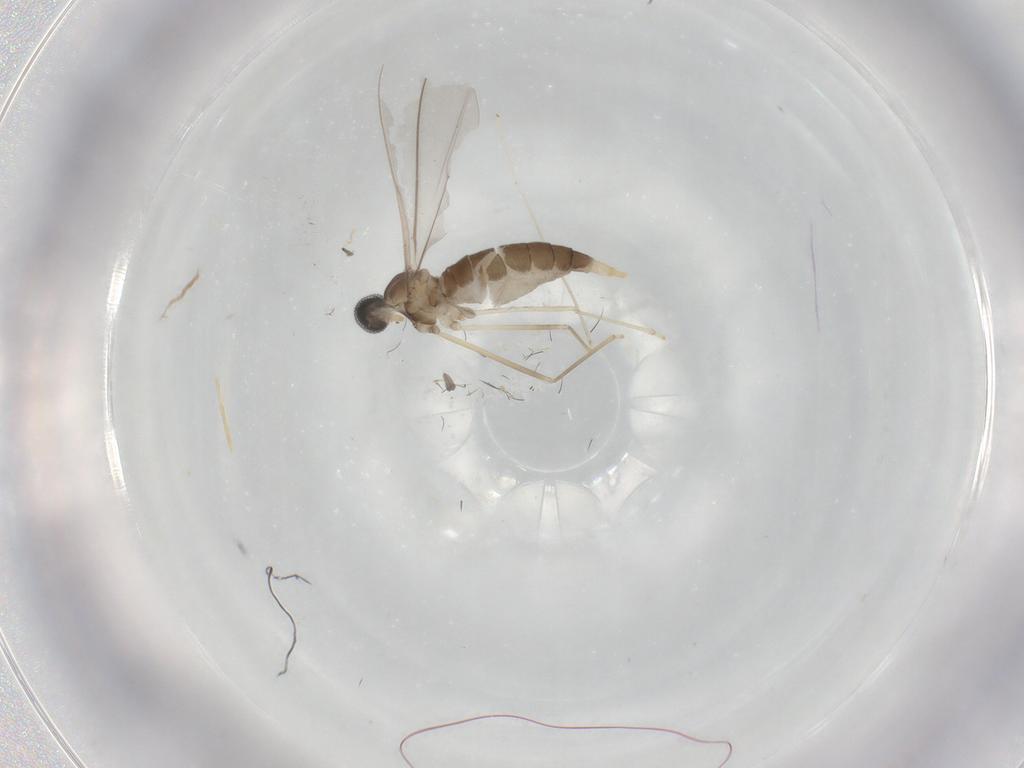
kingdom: Animalia
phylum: Arthropoda
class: Insecta
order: Diptera
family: Cecidomyiidae
